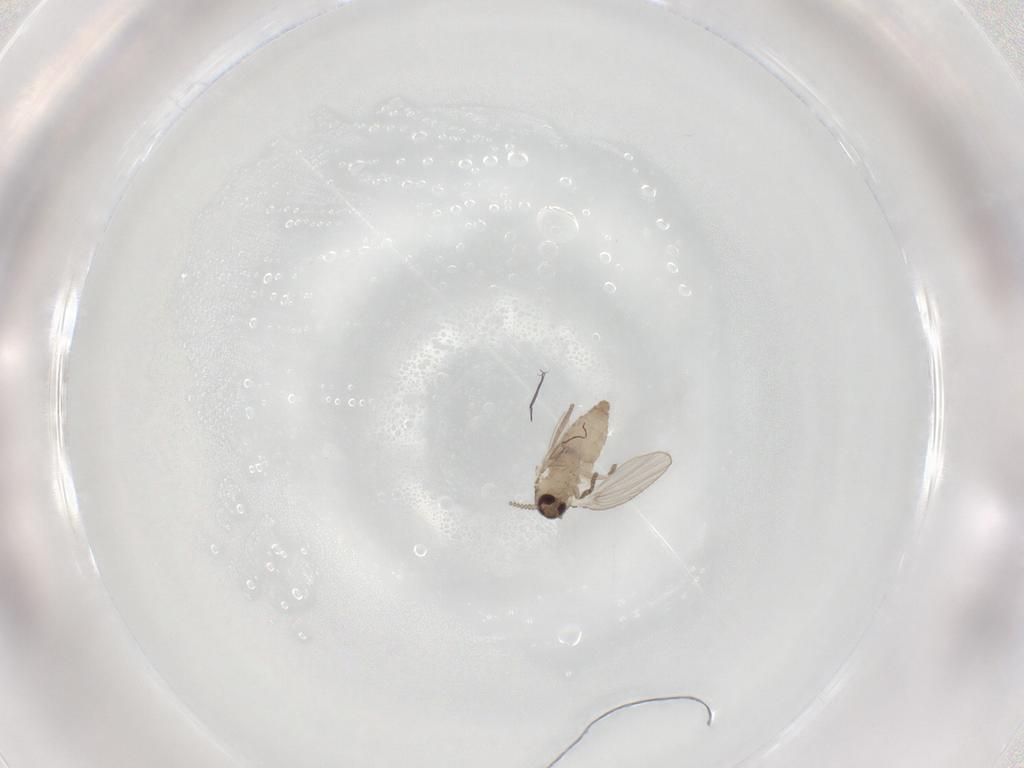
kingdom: Animalia
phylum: Arthropoda
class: Insecta
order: Diptera
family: Psychodidae
